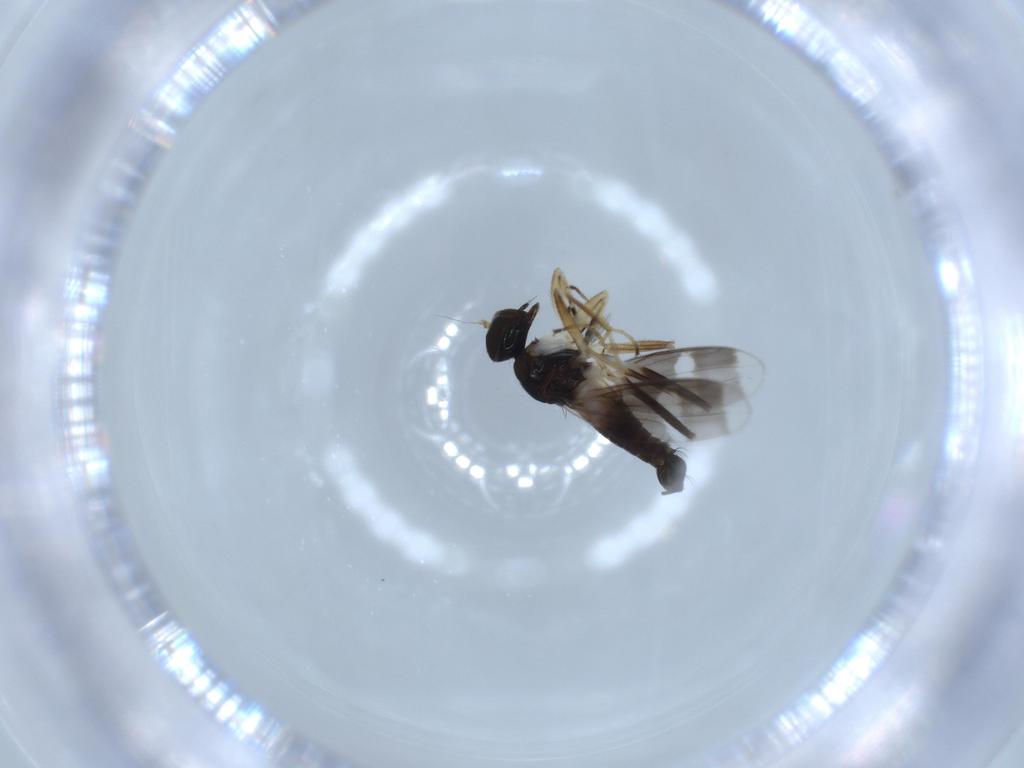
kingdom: Animalia
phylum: Arthropoda
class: Insecta
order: Diptera
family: Hybotidae
